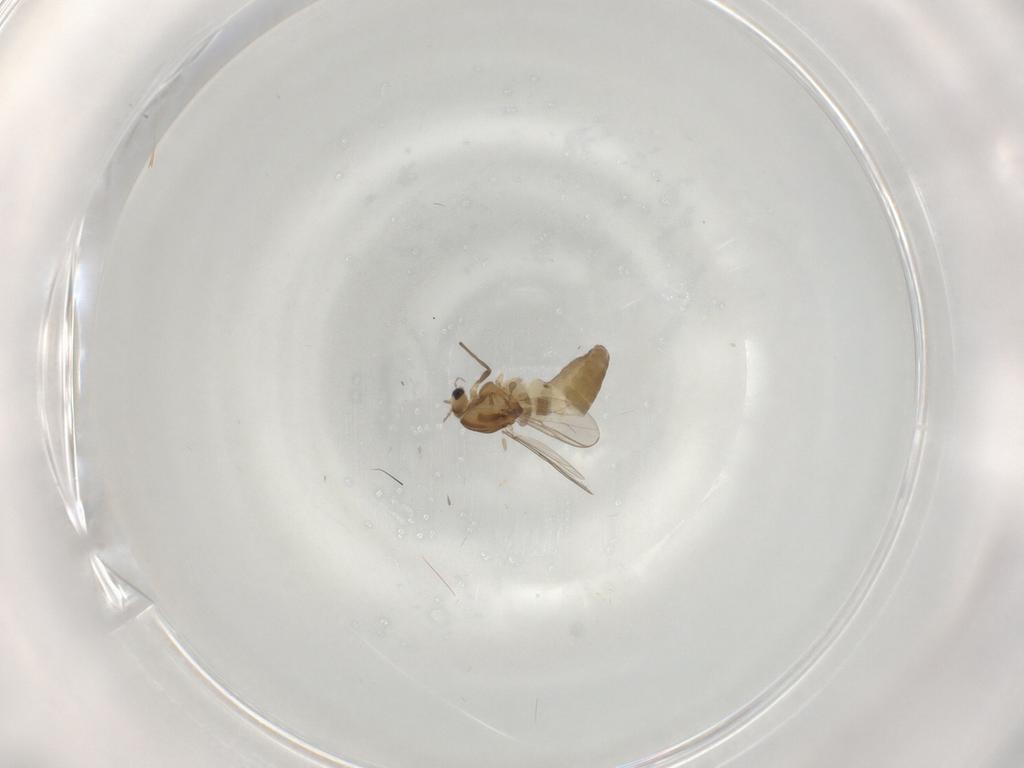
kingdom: Animalia
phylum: Arthropoda
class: Insecta
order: Diptera
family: Chironomidae
